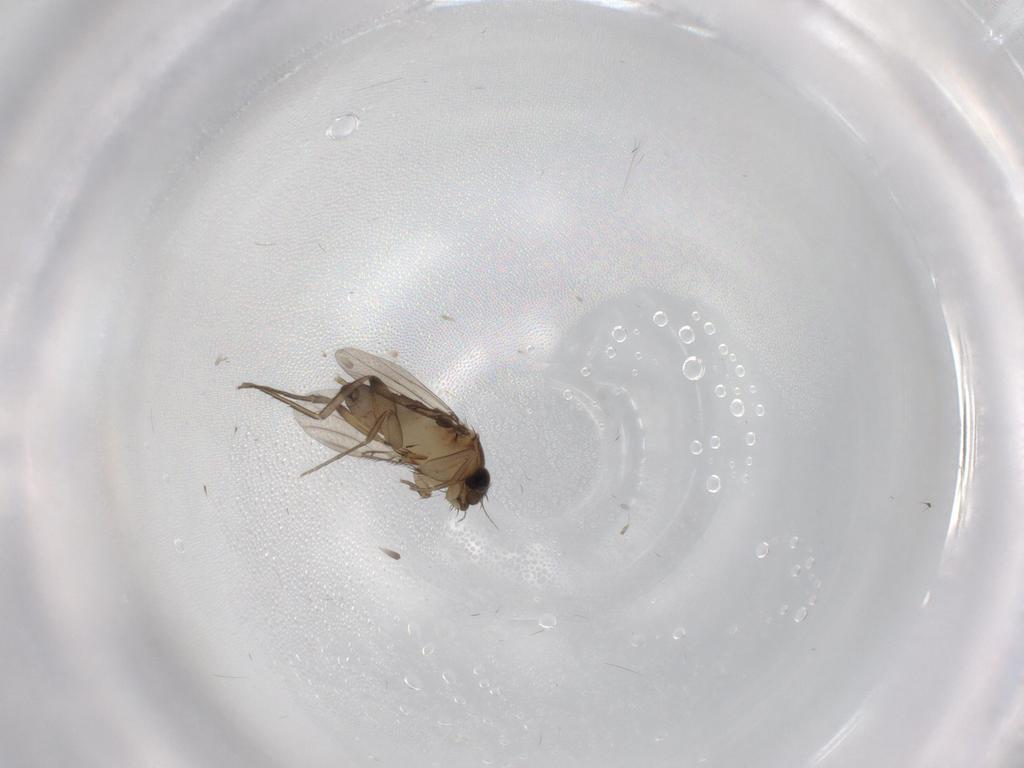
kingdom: Animalia
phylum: Arthropoda
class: Insecta
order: Diptera
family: Phoridae
